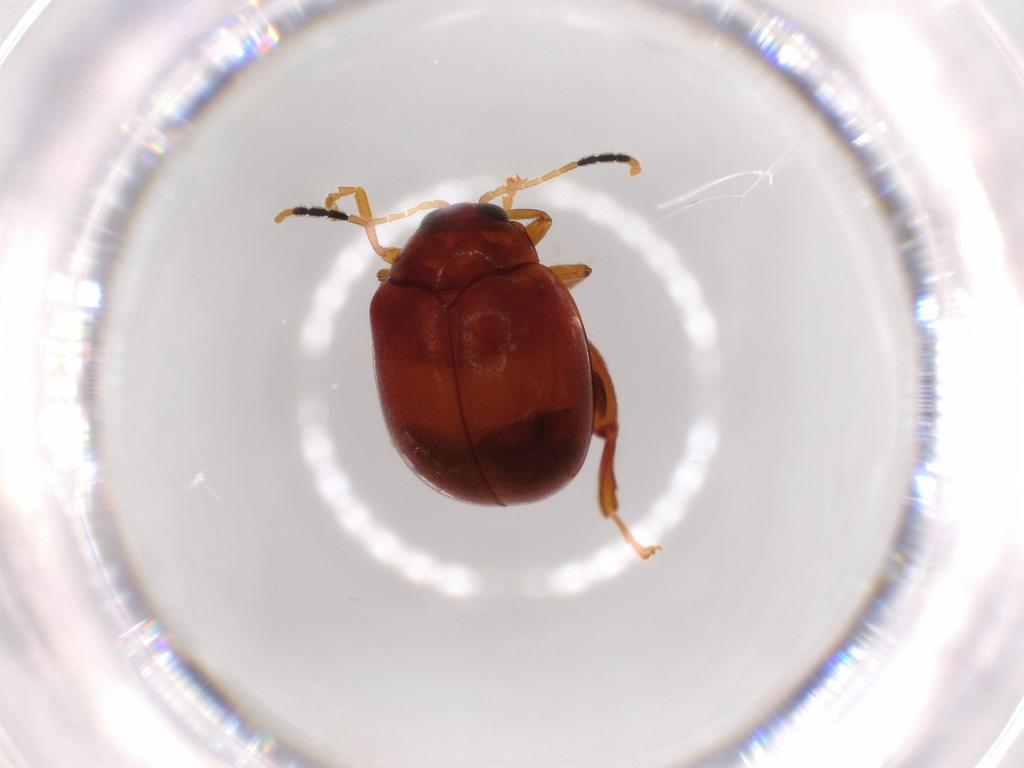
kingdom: Animalia
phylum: Arthropoda
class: Insecta
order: Coleoptera
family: Chrysomelidae
